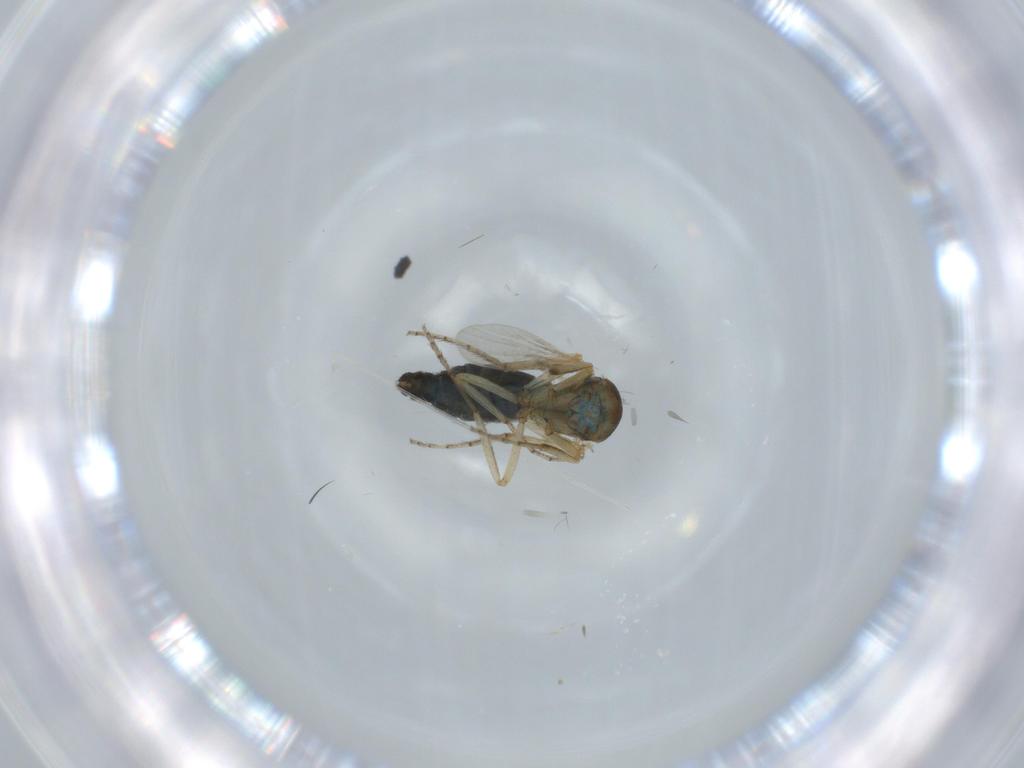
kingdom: Animalia
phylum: Arthropoda
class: Insecta
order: Diptera
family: Ceratopogonidae
